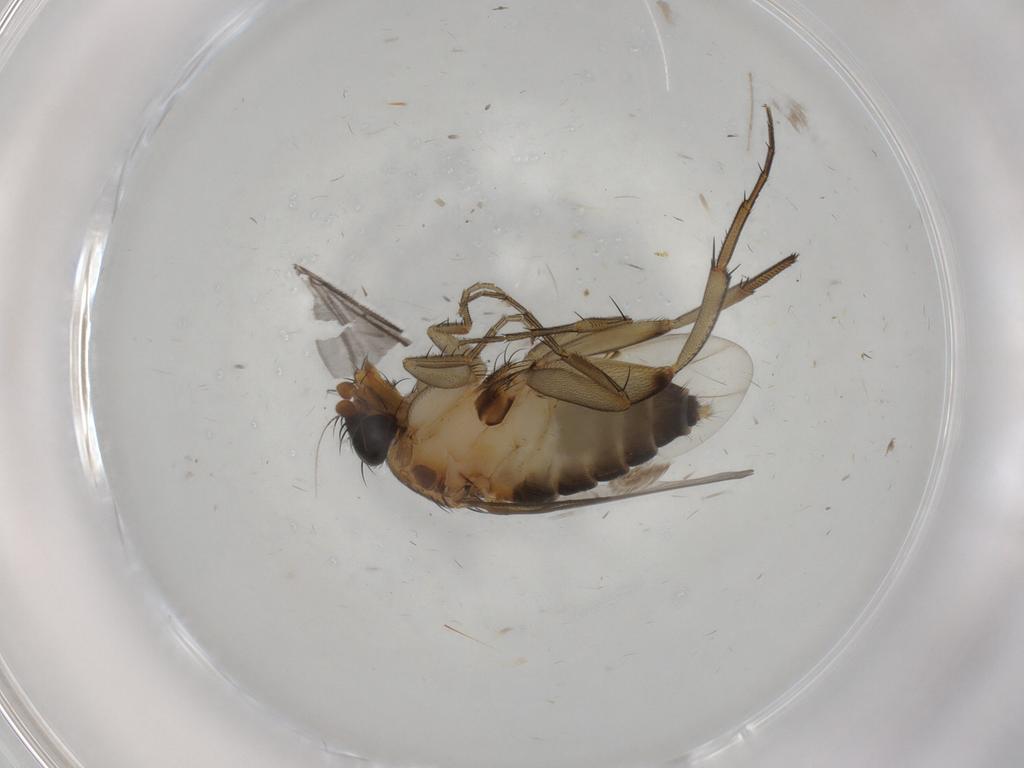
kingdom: Animalia
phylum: Arthropoda
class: Insecta
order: Diptera
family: Sciaridae
